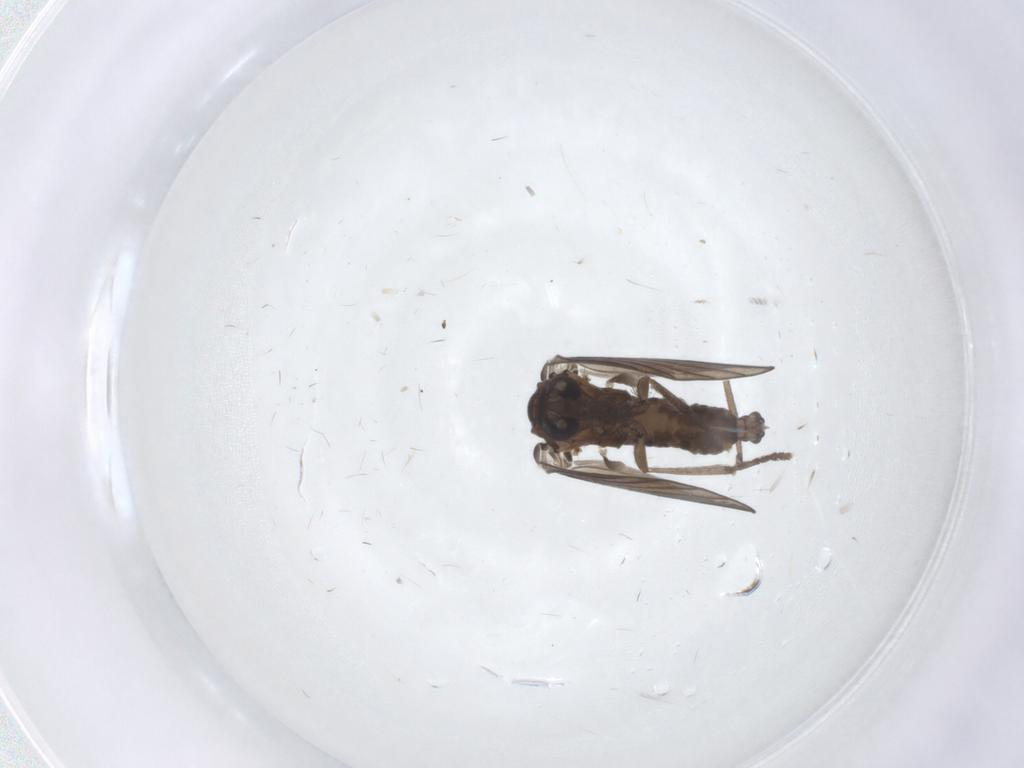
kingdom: Animalia
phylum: Arthropoda
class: Insecta
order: Diptera
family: Psychodidae
